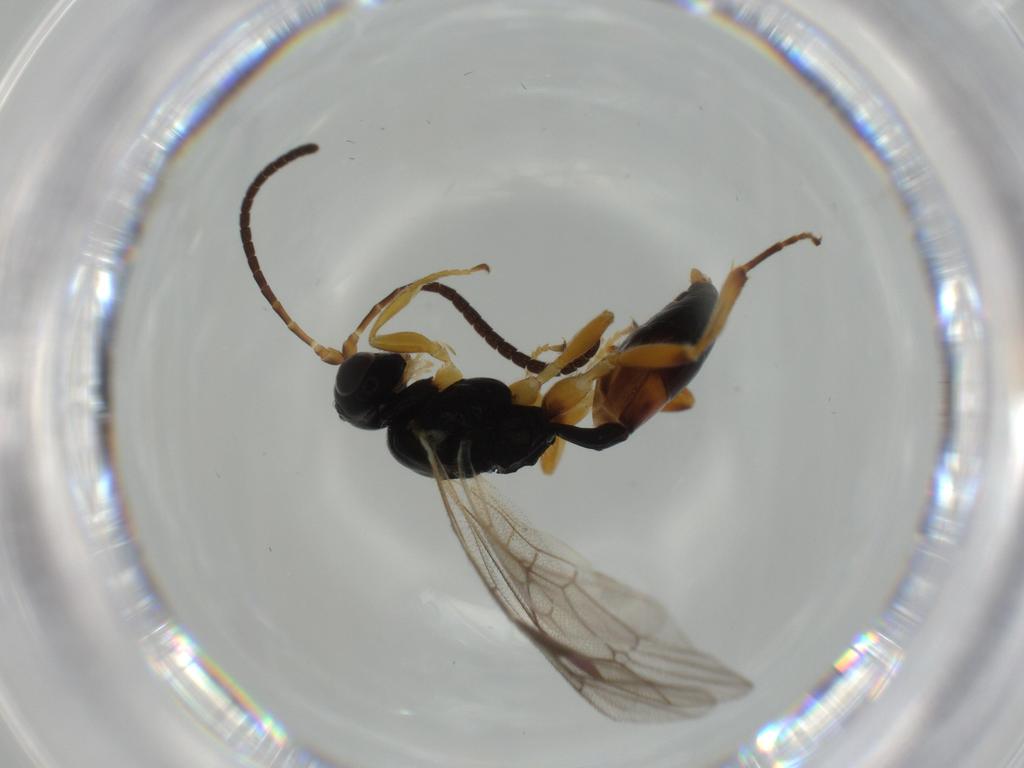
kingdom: Animalia
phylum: Arthropoda
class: Insecta
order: Hymenoptera
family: Ichneumonidae
